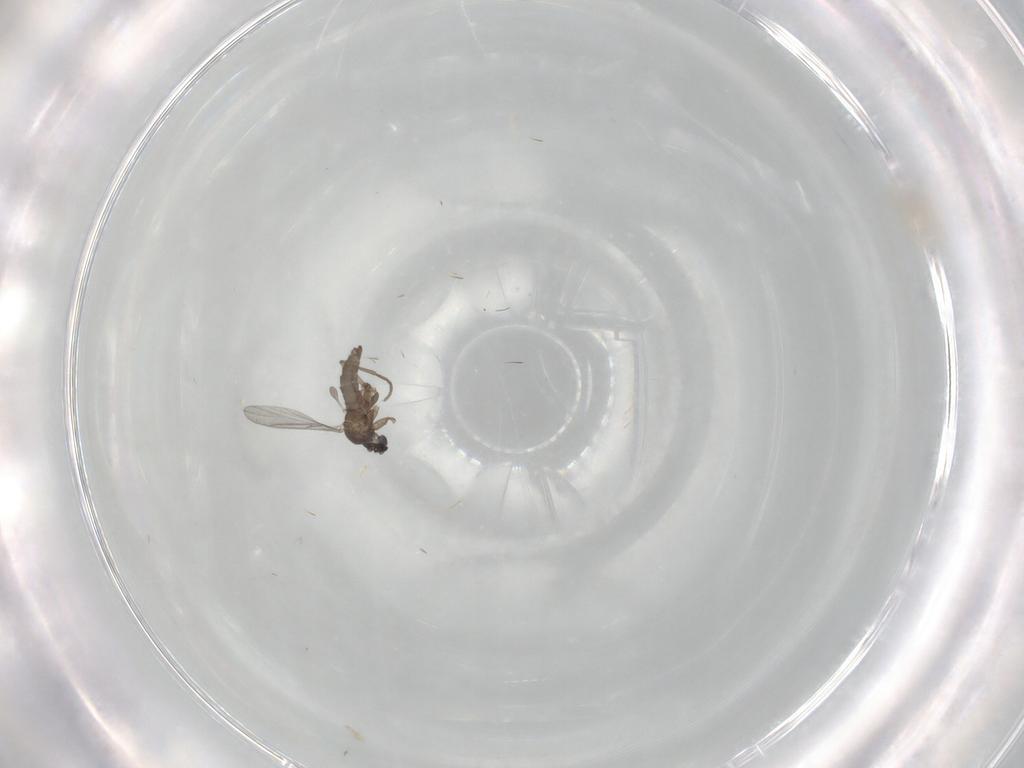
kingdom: Animalia
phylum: Arthropoda
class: Insecta
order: Diptera
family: Sciaridae
